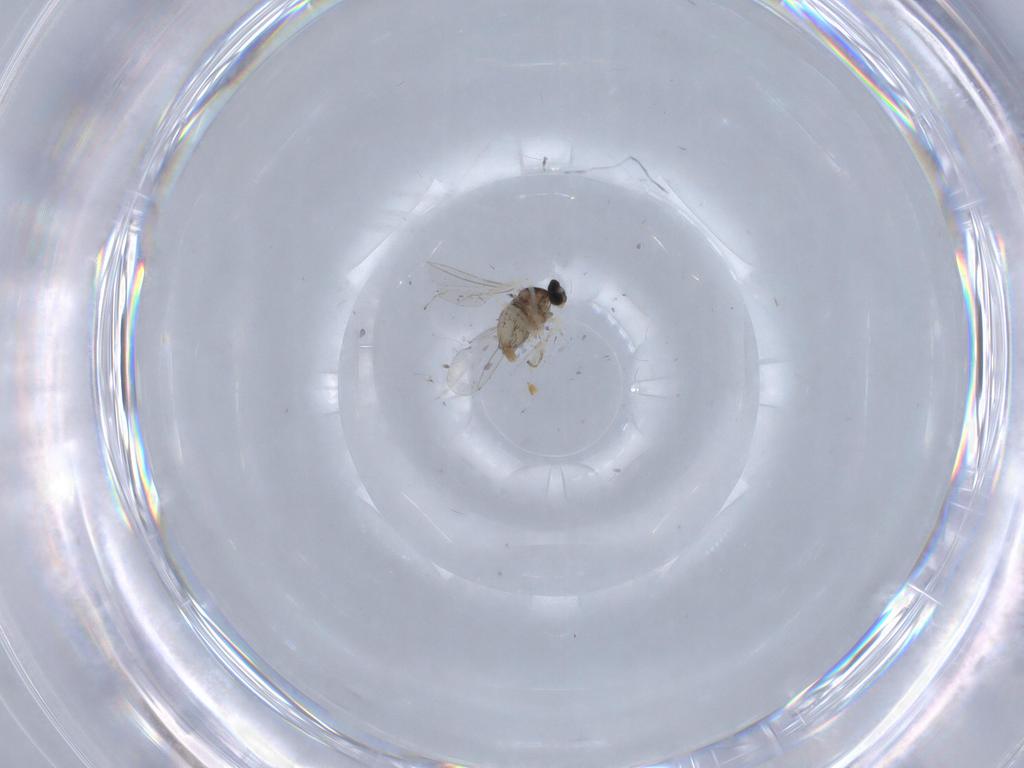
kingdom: Animalia
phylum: Arthropoda
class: Insecta
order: Diptera
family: Cecidomyiidae
